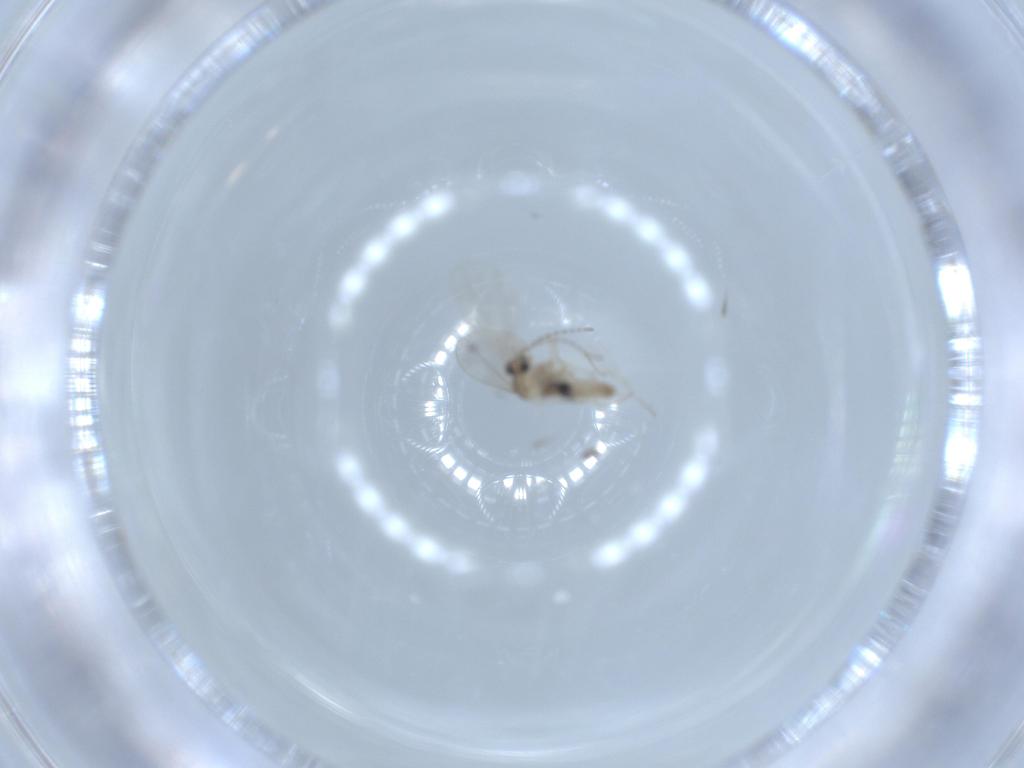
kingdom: Animalia
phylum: Arthropoda
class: Insecta
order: Diptera
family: Cecidomyiidae
